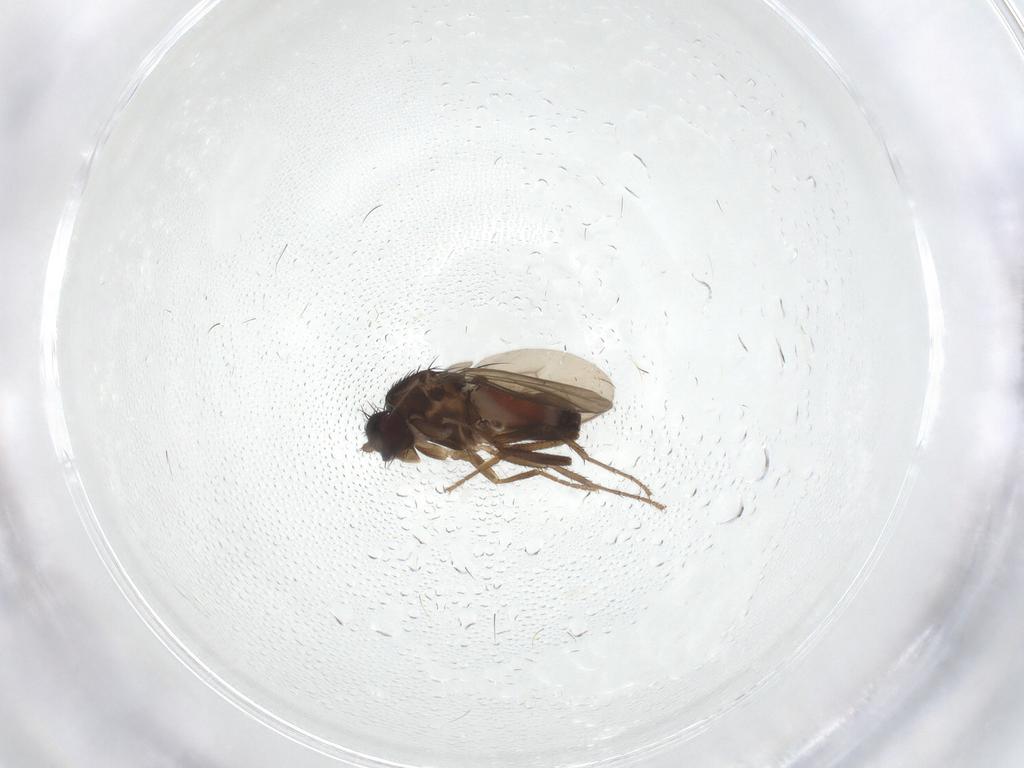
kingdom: Animalia
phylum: Arthropoda
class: Insecta
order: Diptera
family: Sphaeroceridae
